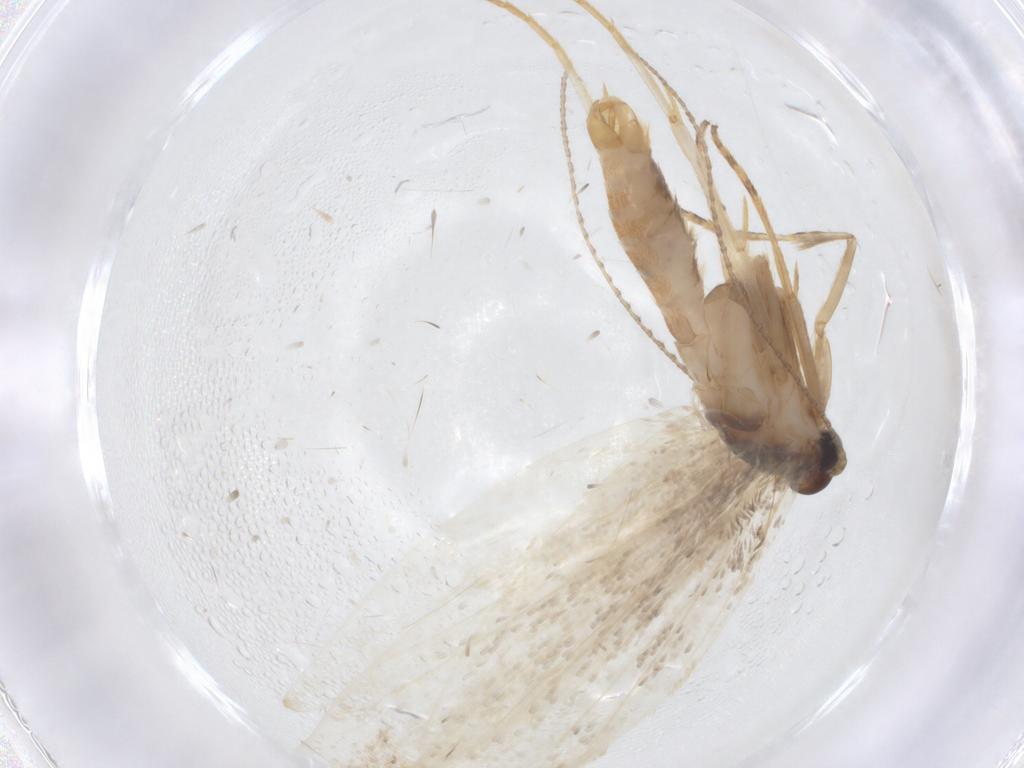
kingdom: Animalia
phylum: Arthropoda
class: Insecta
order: Lepidoptera
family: Erebidae
